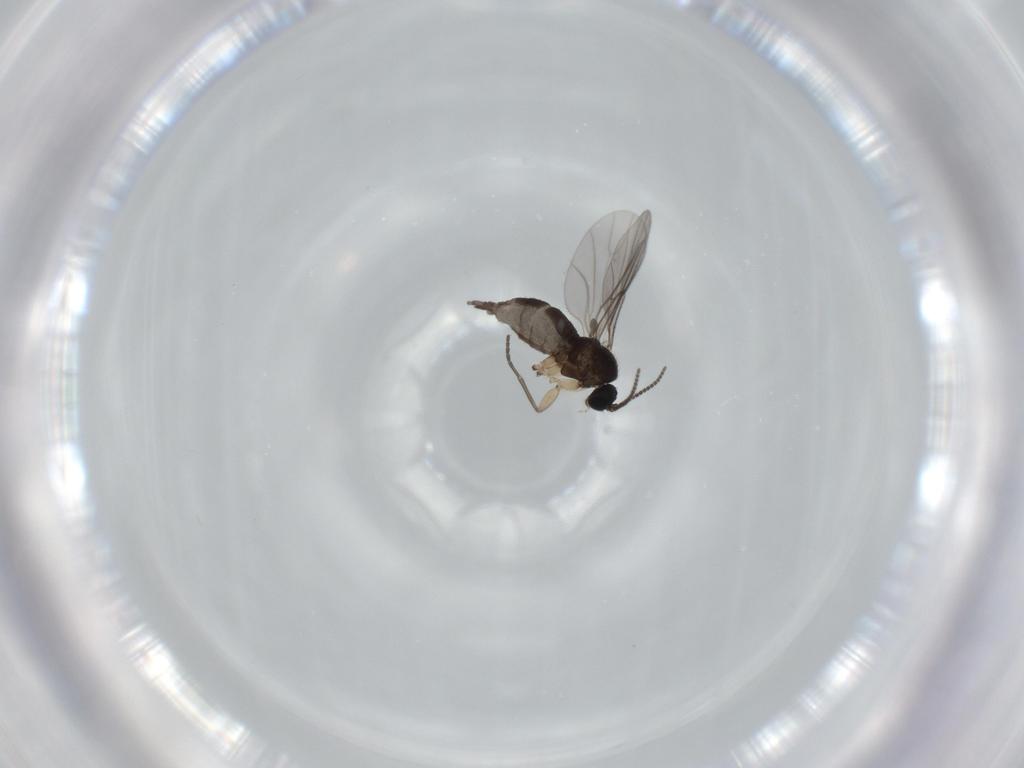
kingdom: Animalia
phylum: Arthropoda
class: Insecta
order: Diptera
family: Sciaridae
